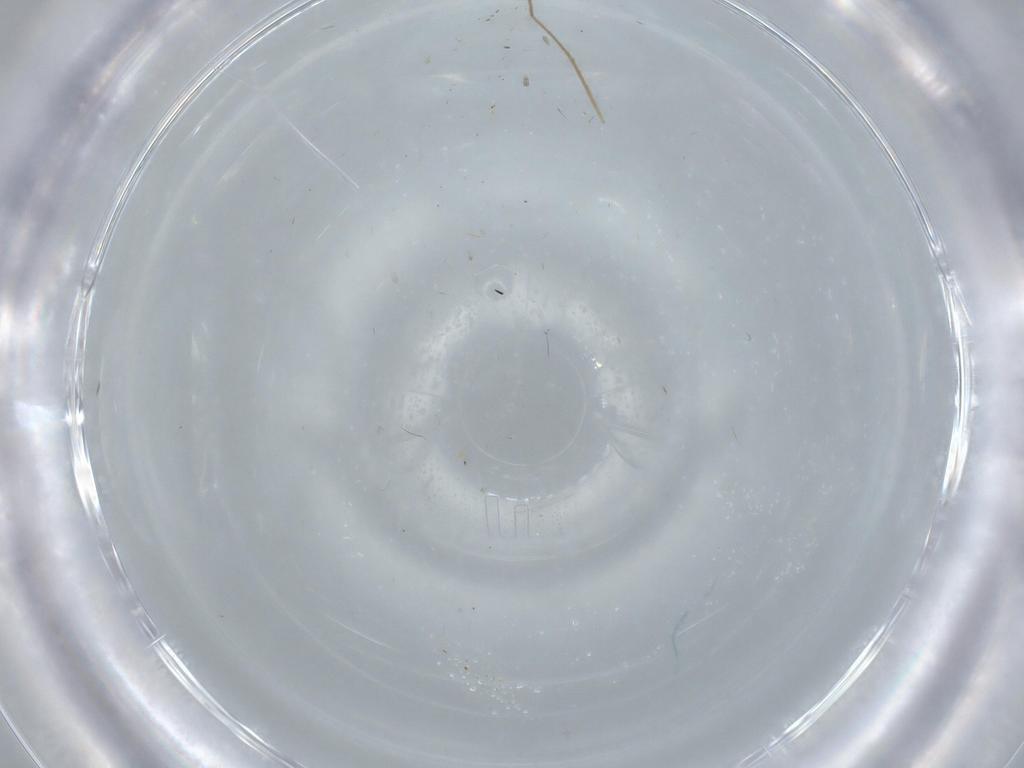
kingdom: Animalia
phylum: Arthropoda
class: Insecta
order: Diptera
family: Chironomidae
